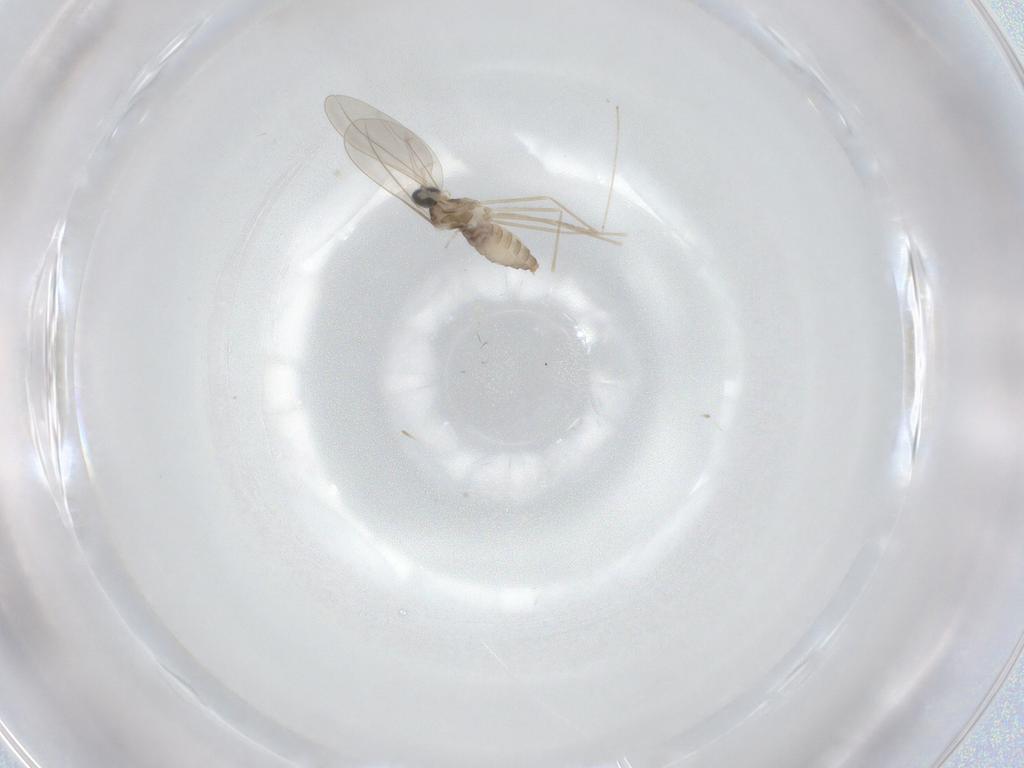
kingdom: Animalia
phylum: Arthropoda
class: Insecta
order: Diptera
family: Cecidomyiidae
